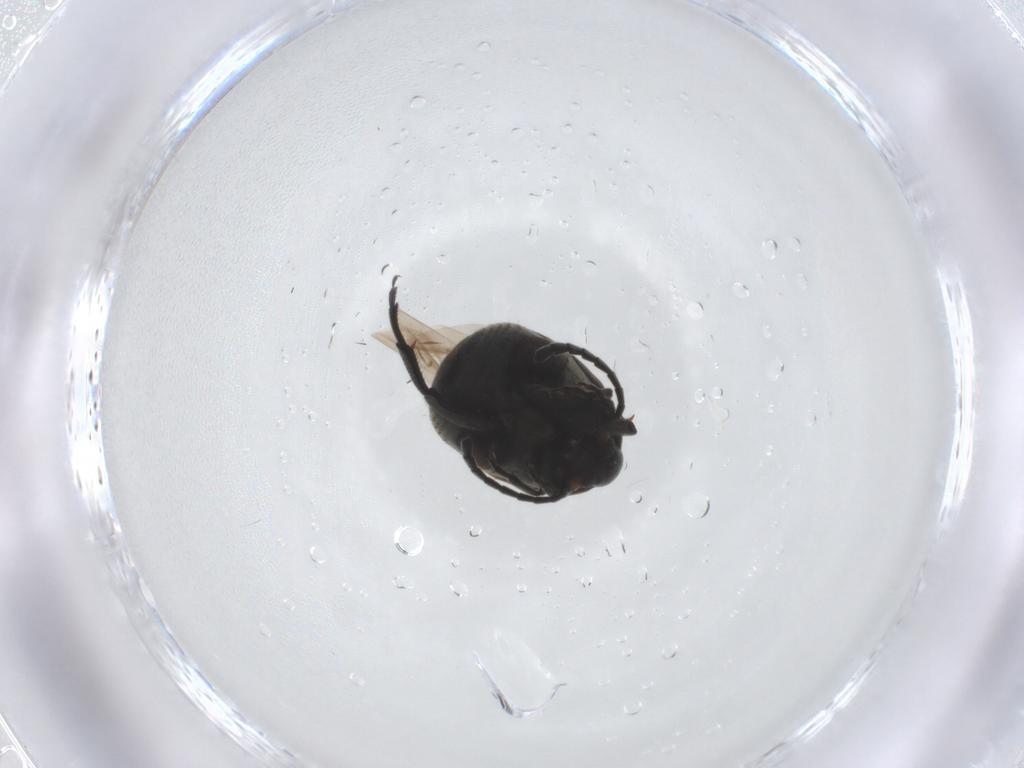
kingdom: Animalia
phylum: Arthropoda
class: Insecta
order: Coleoptera
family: Chrysomelidae
